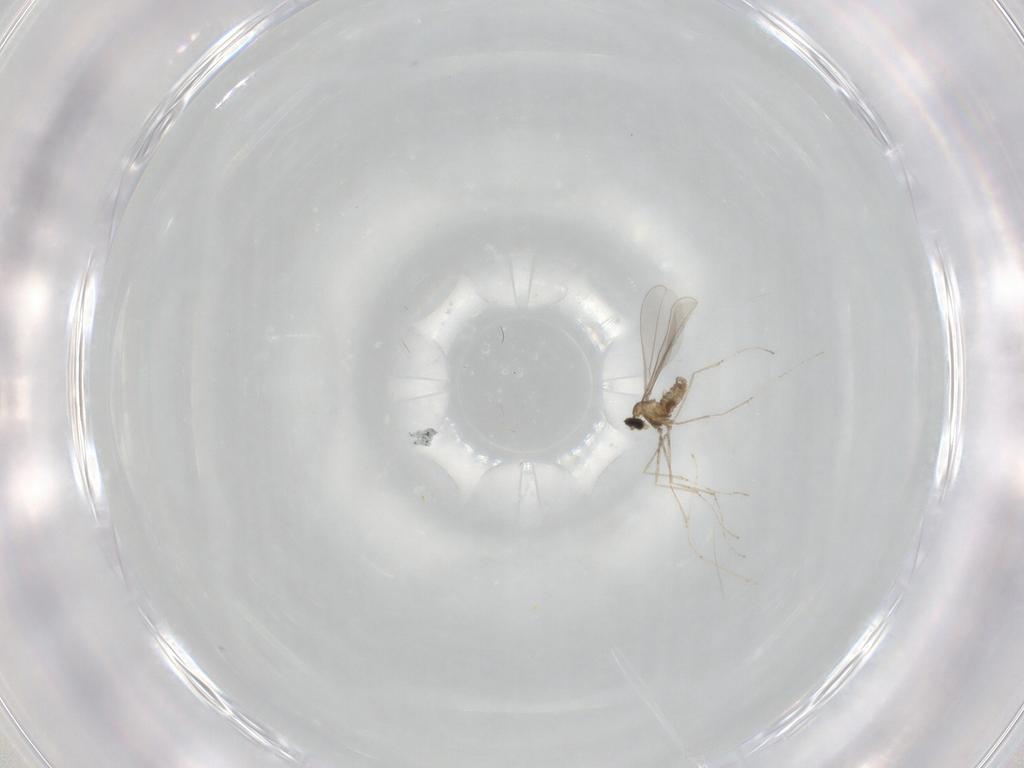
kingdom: Animalia
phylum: Arthropoda
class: Insecta
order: Diptera
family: Cecidomyiidae
